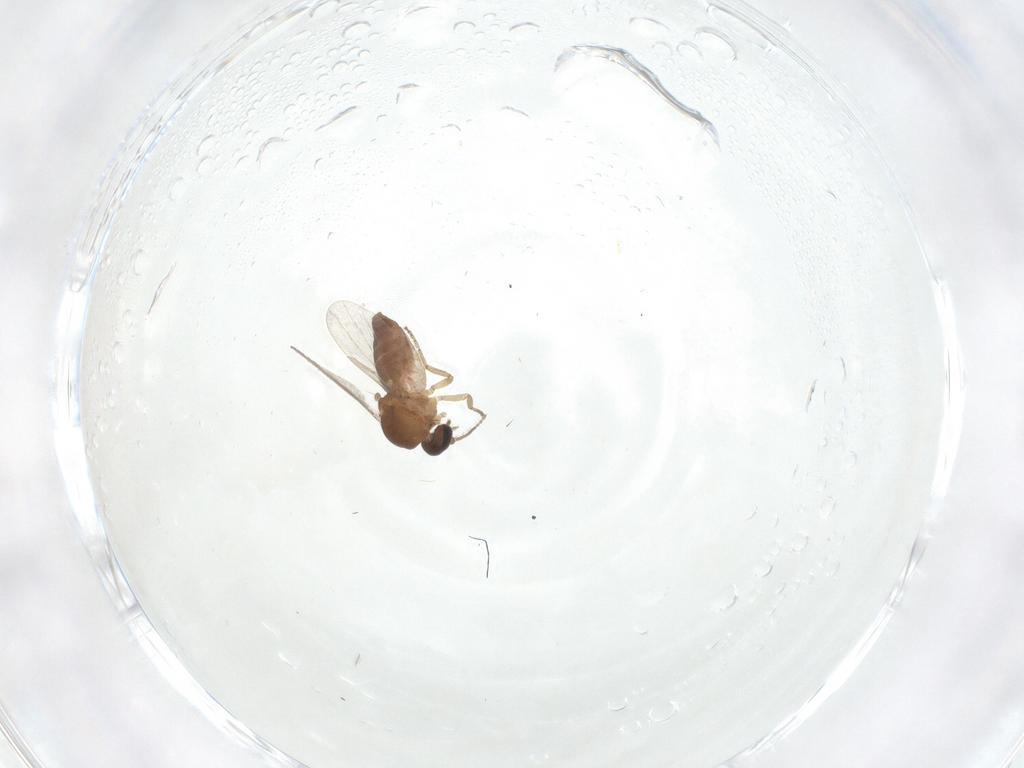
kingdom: Animalia
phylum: Arthropoda
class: Insecta
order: Diptera
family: Ceratopogonidae
